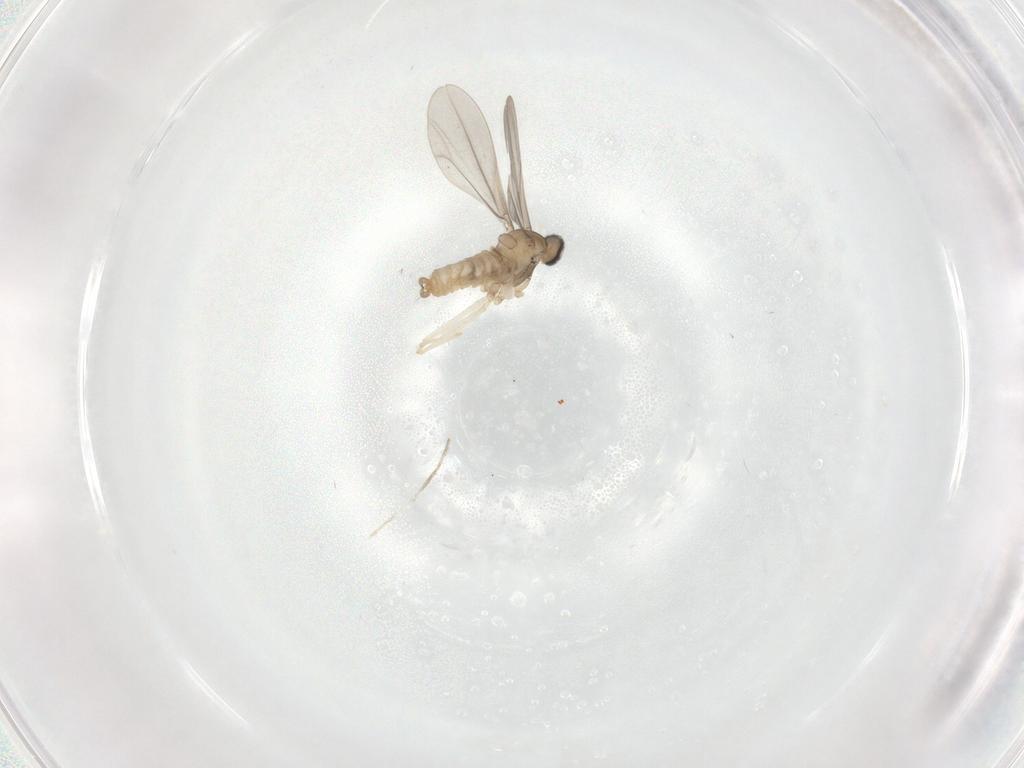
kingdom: Animalia
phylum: Arthropoda
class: Insecta
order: Diptera
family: Cecidomyiidae
